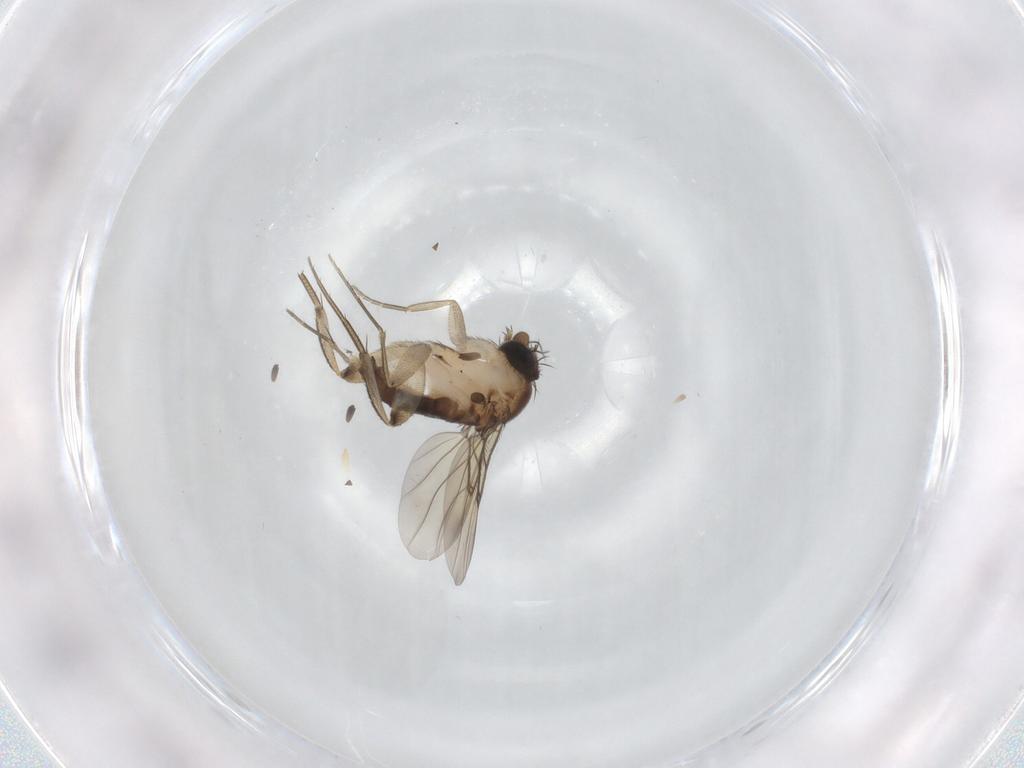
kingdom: Animalia
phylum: Arthropoda
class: Insecta
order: Diptera
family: Phoridae
